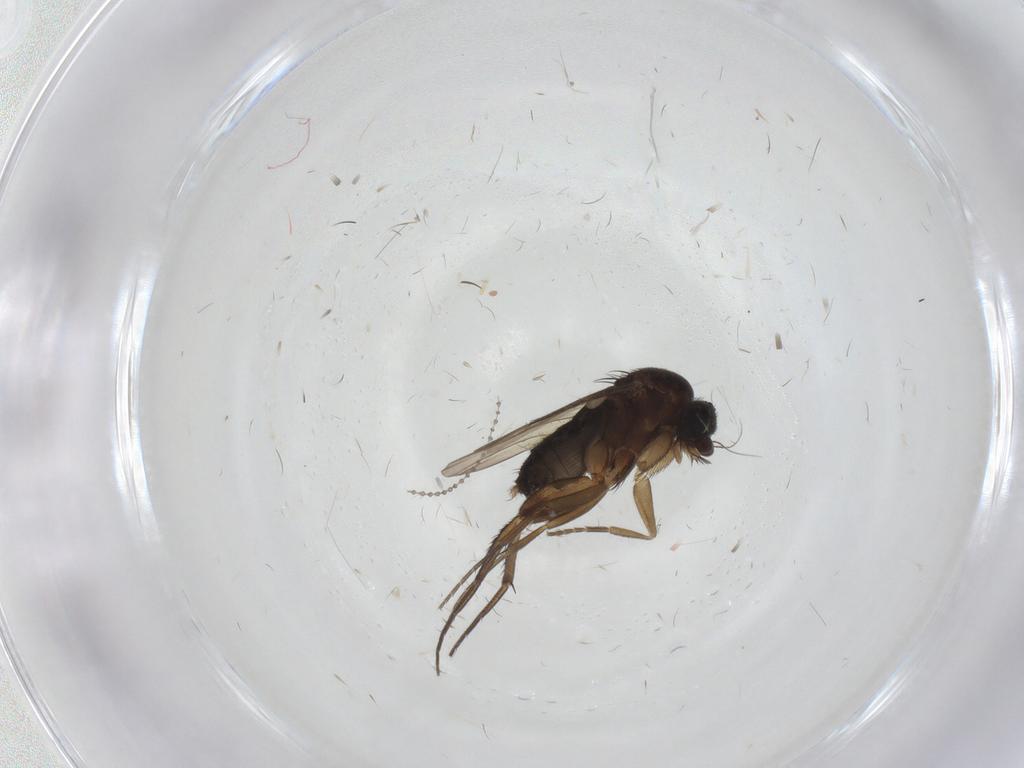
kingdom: Animalia
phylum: Arthropoda
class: Insecta
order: Diptera
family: Phoridae
